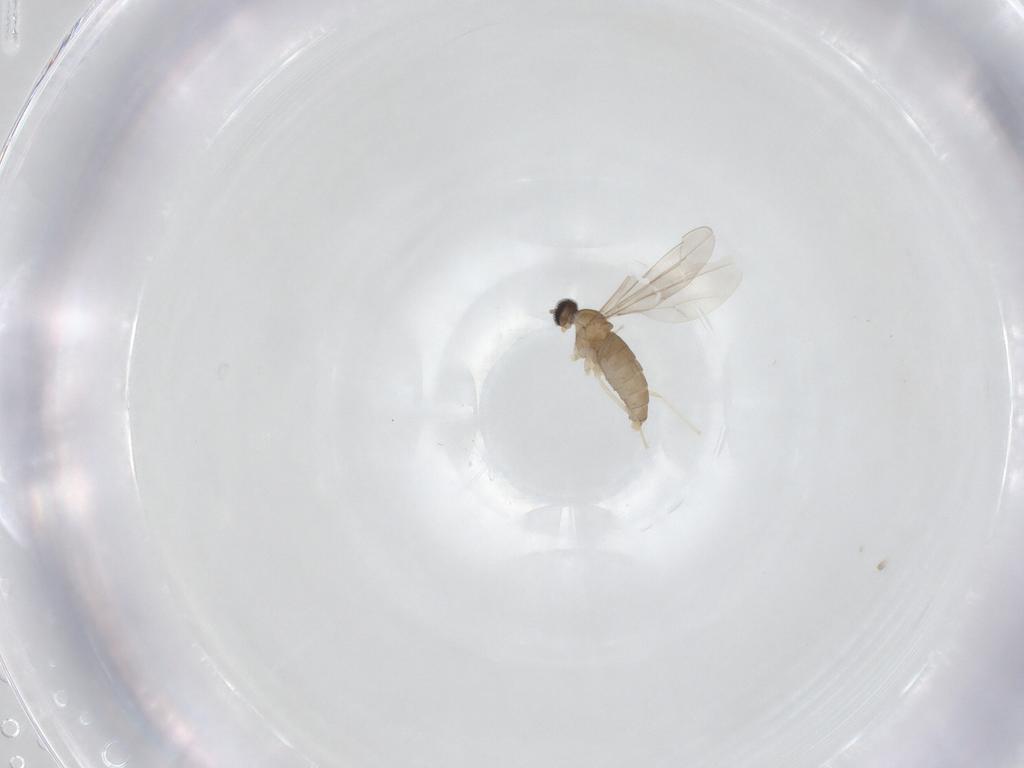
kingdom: Animalia
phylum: Arthropoda
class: Insecta
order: Diptera
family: Cecidomyiidae
